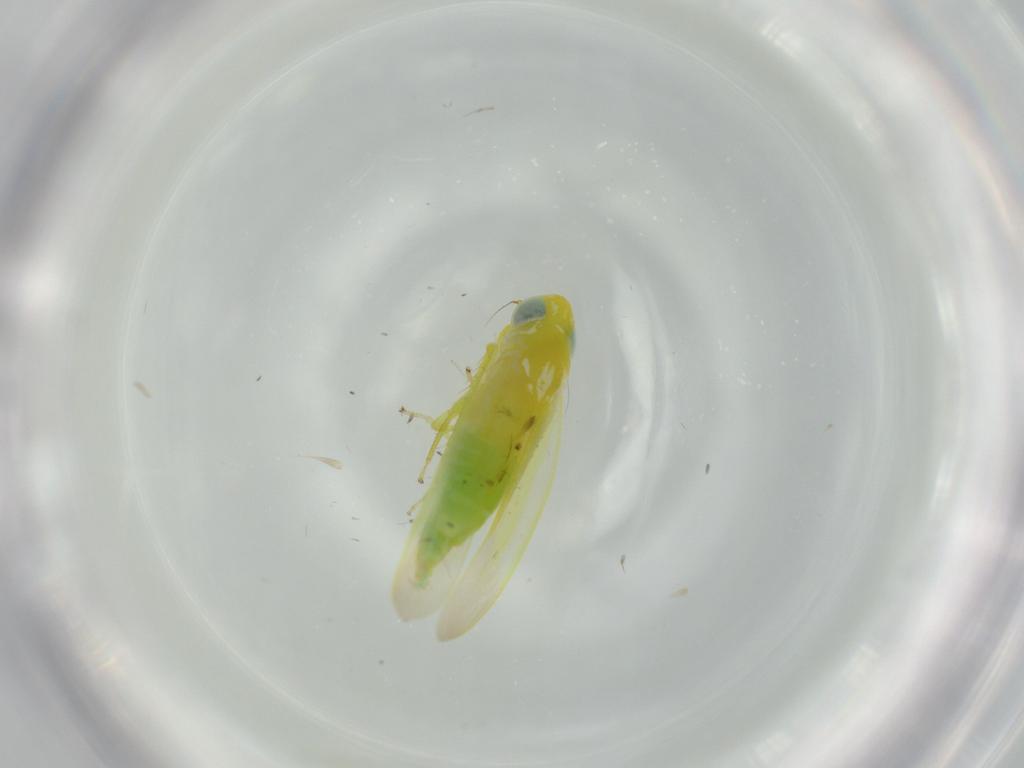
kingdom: Animalia
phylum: Arthropoda
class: Insecta
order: Hemiptera
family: Cicadellidae
